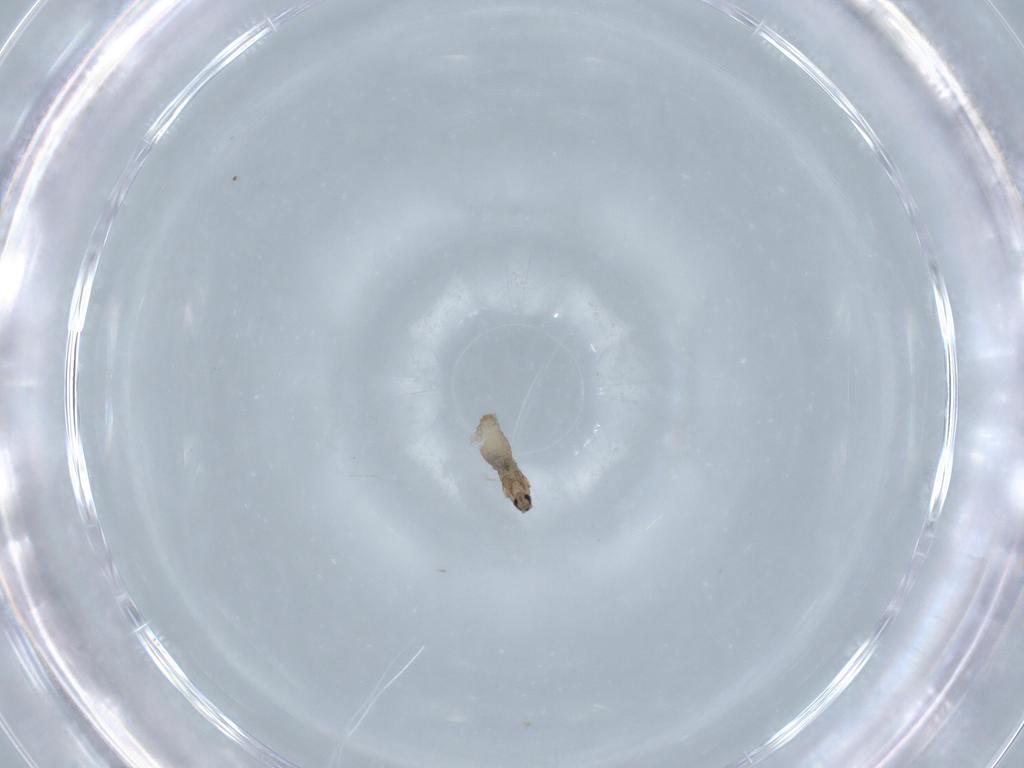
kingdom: Animalia
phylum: Arthropoda
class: Insecta
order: Diptera
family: Cecidomyiidae
